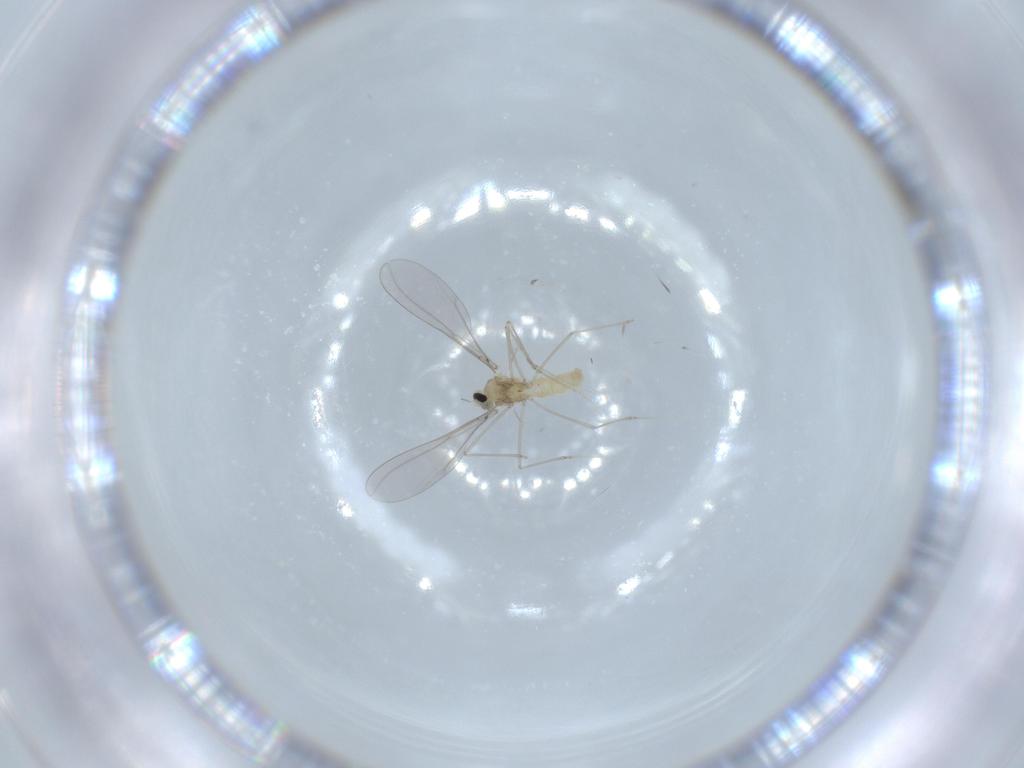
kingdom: Animalia
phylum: Arthropoda
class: Insecta
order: Diptera
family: Cecidomyiidae
